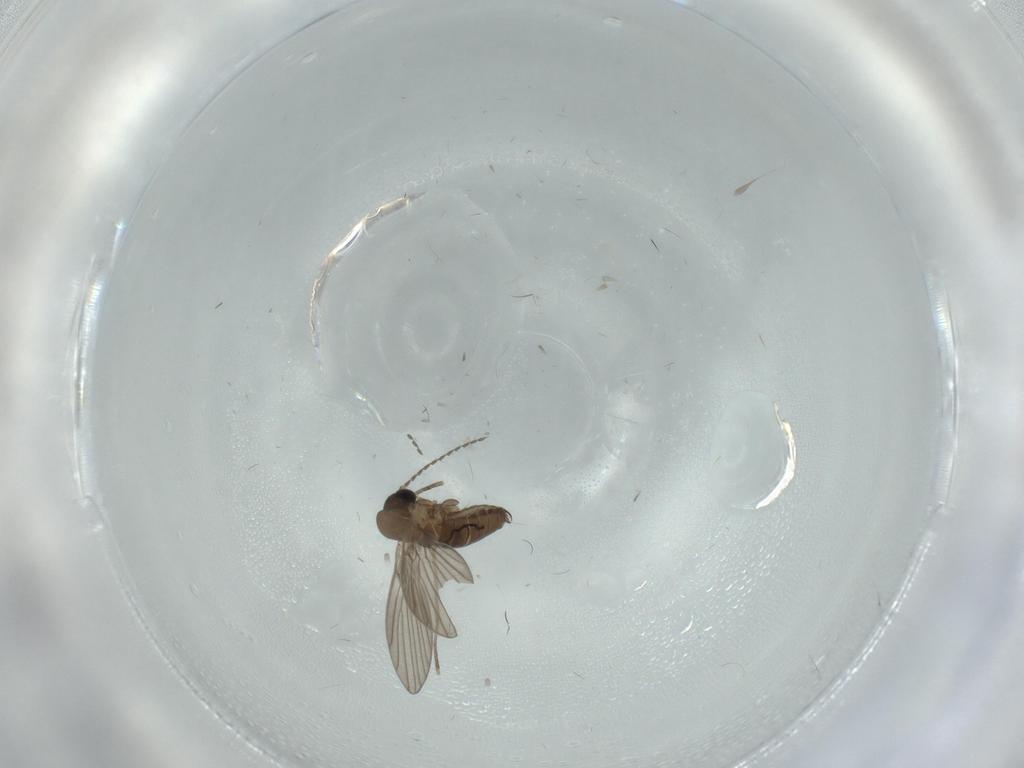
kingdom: Animalia
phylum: Arthropoda
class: Insecta
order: Diptera
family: Psychodidae
